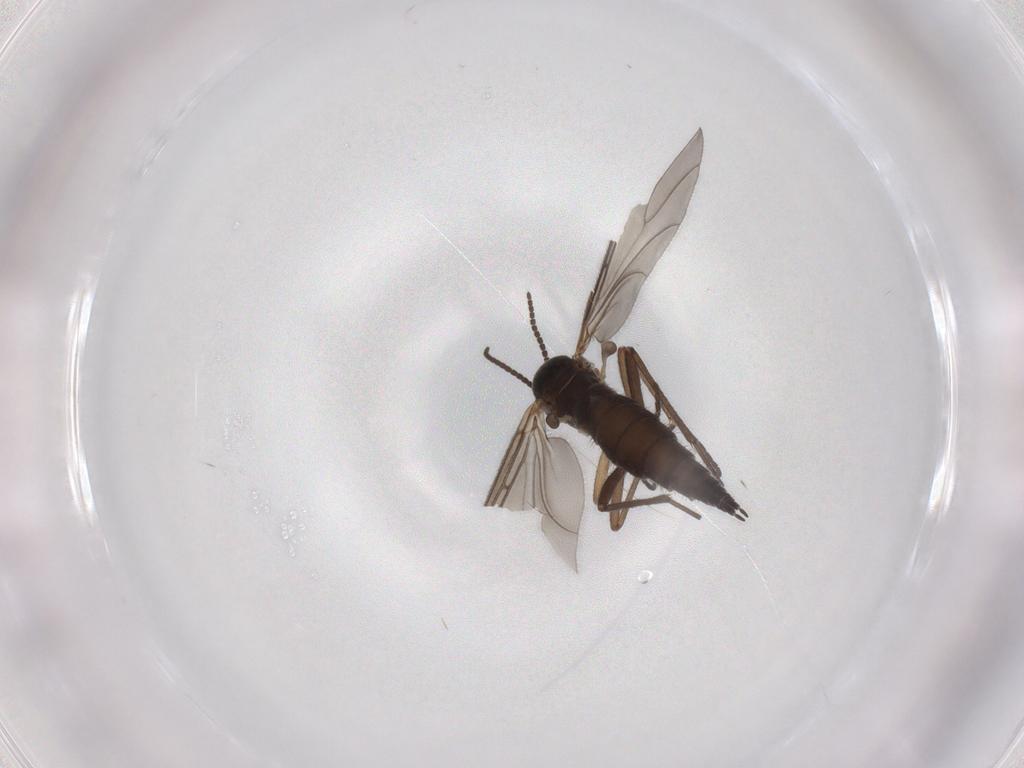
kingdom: Animalia
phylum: Arthropoda
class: Insecta
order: Diptera
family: Sciaridae
